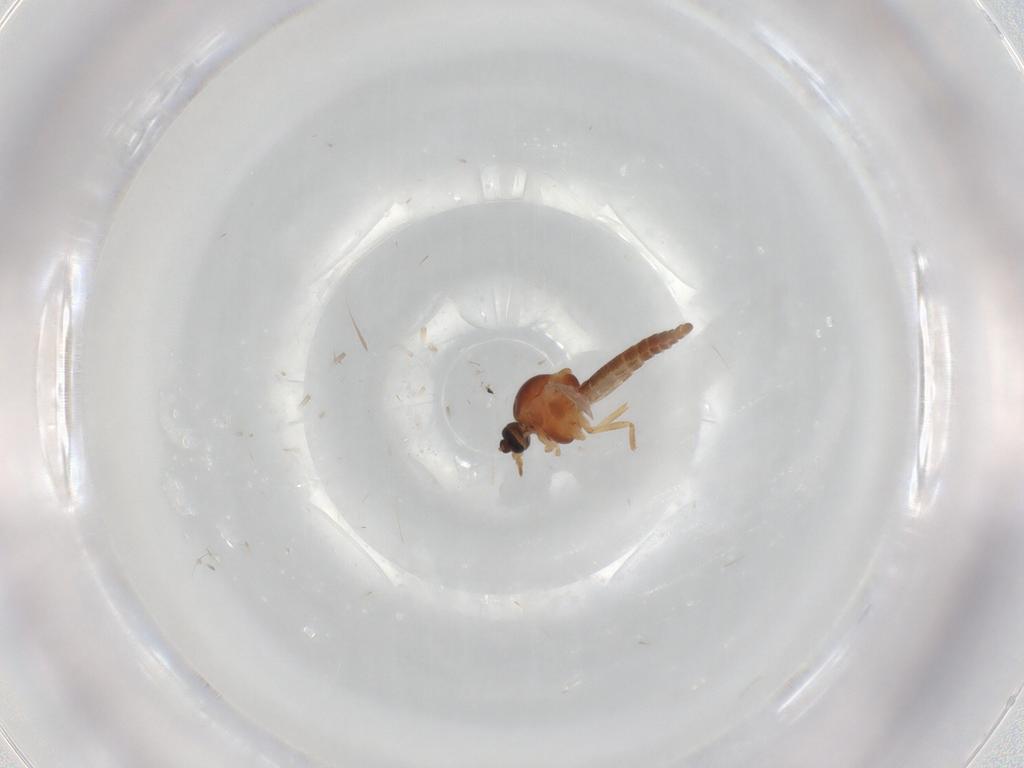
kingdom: Animalia
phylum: Arthropoda
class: Insecta
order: Diptera
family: Ceratopogonidae
